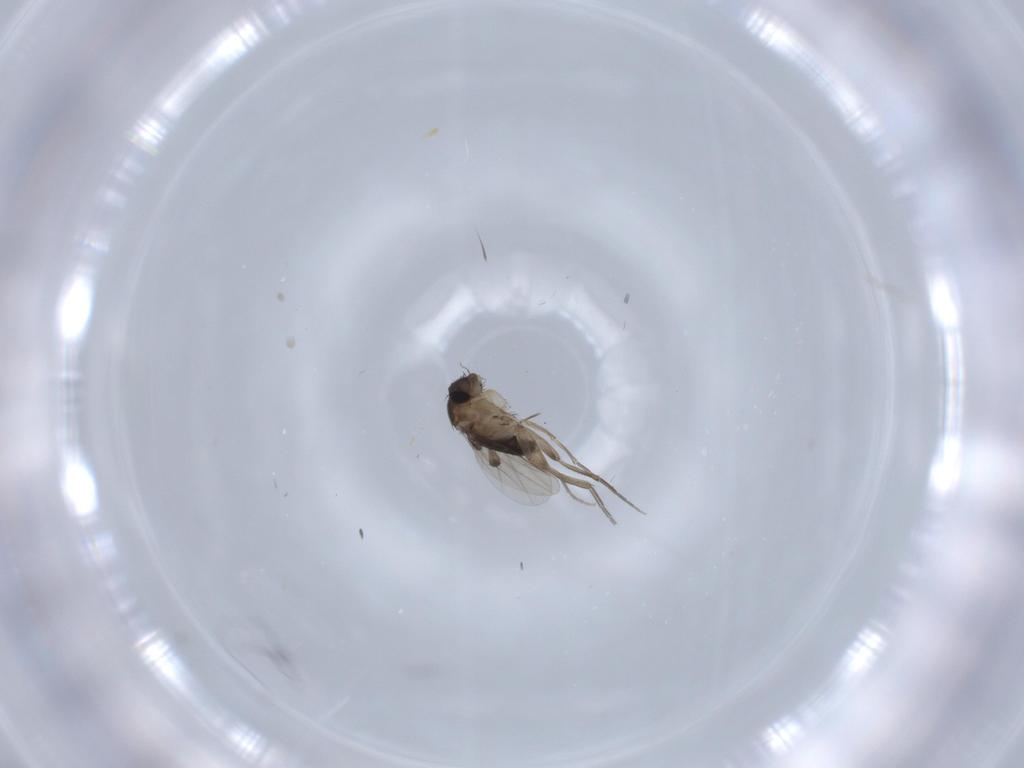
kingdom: Animalia
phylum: Arthropoda
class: Insecta
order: Diptera
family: Phoridae
